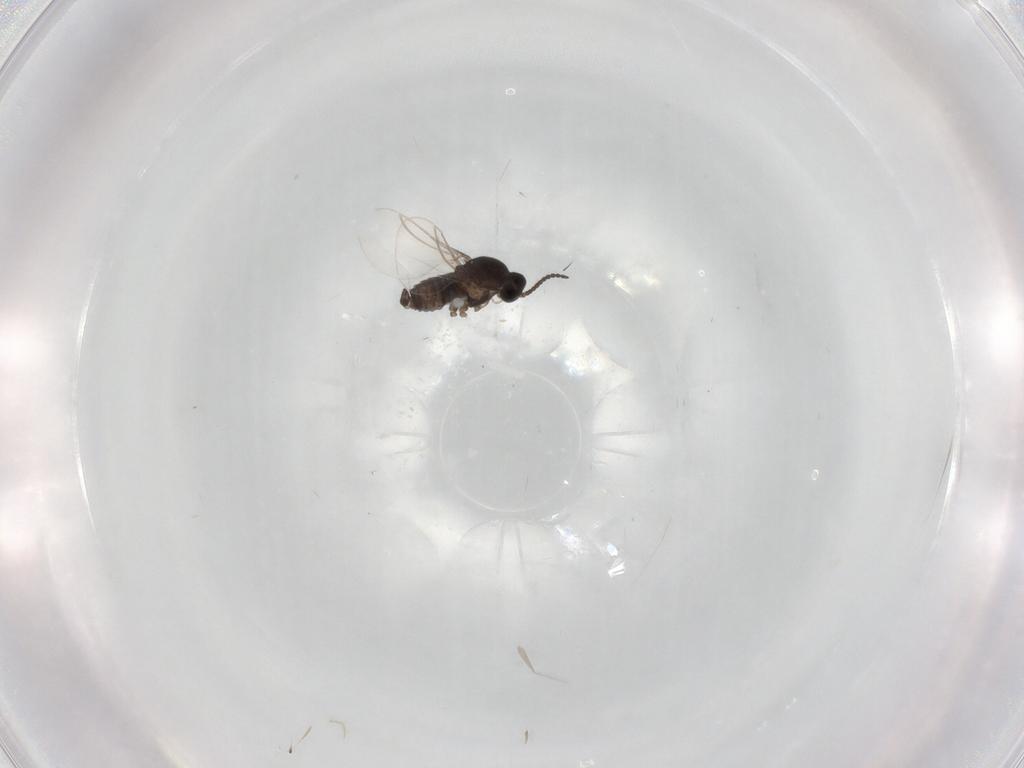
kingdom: Animalia
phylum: Arthropoda
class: Insecta
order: Diptera
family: Cecidomyiidae
